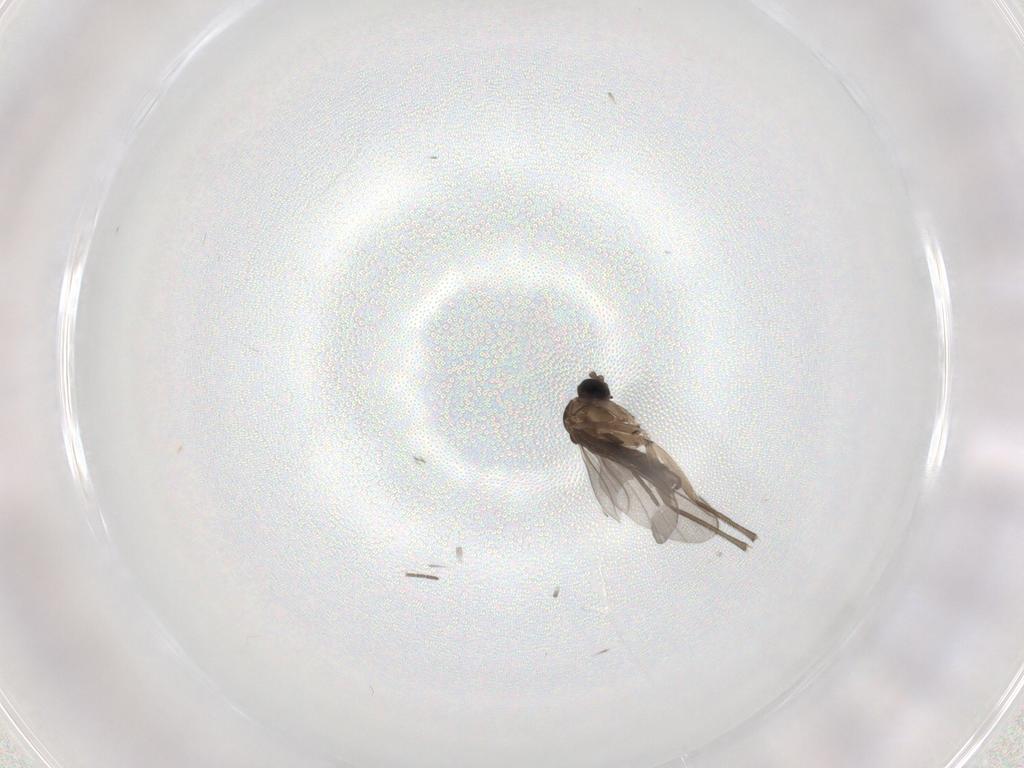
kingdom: Animalia
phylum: Arthropoda
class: Insecta
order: Diptera
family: Sciaridae
